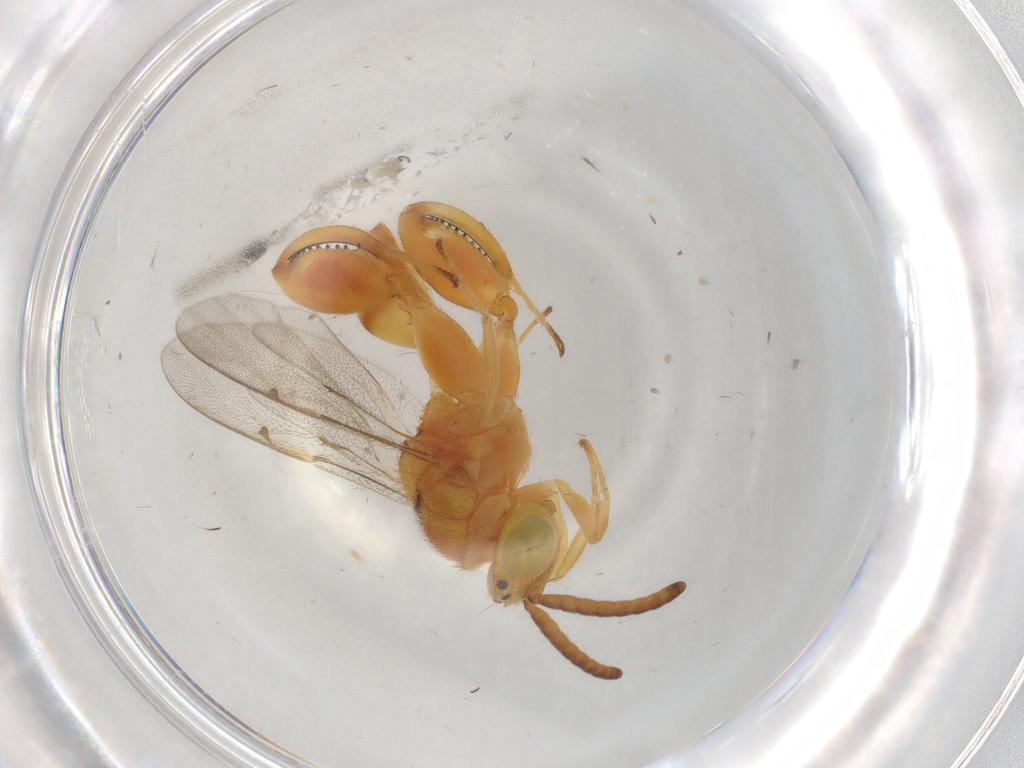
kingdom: Animalia
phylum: Arthropoda
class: Insecta
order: Hymenoptera
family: Chalcididae
